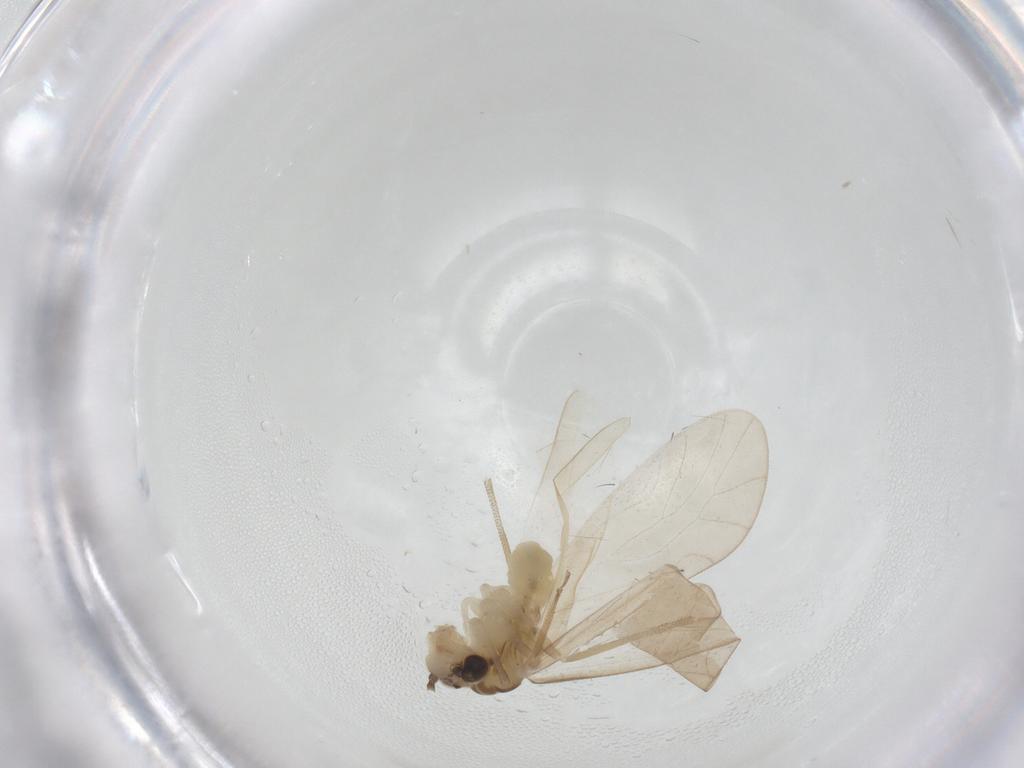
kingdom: Animalia
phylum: Arthropoda
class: Insecta
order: Psocodea
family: Caeciliusidae
